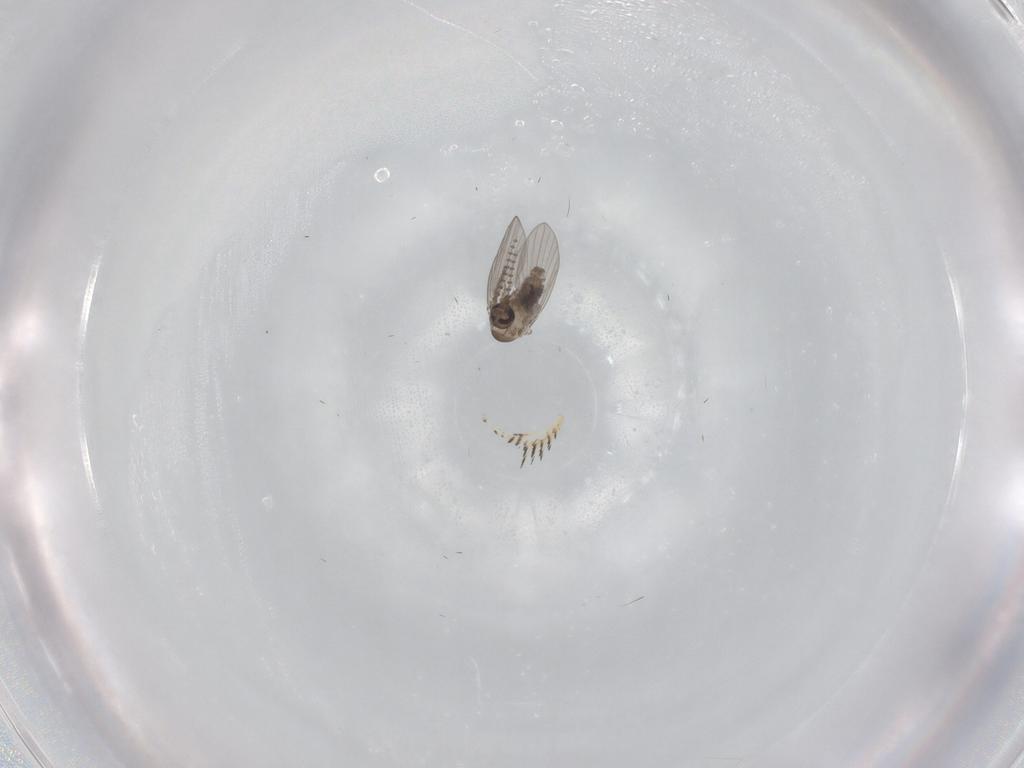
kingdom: Animalia
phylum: Arthropoda
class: Insecta
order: Diptera
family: Psychodidae
